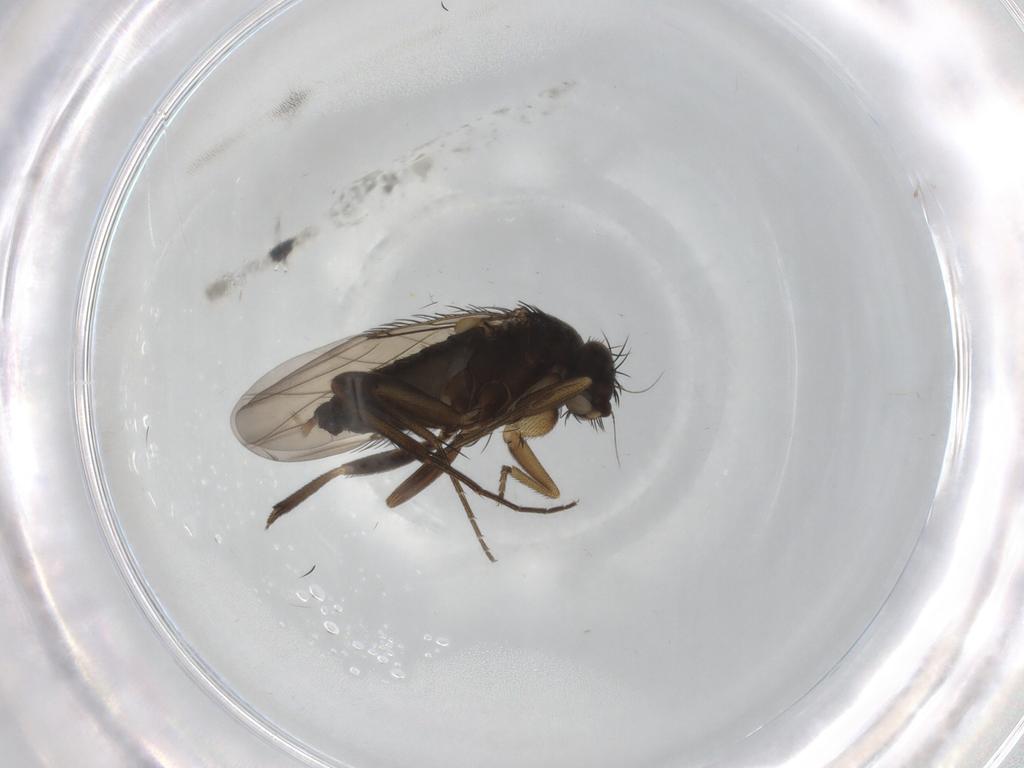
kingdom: Animalia
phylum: Arthropoda
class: Insecta
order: Diptera
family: Phoridae
